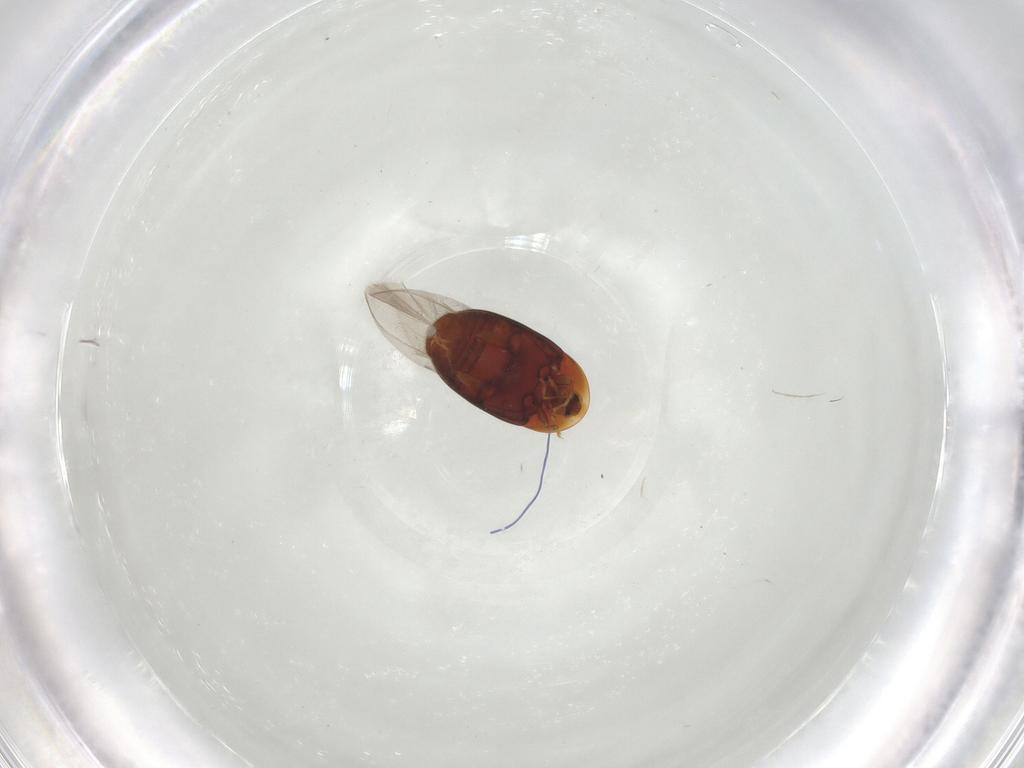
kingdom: Animalia
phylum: Arthropoda
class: Insecta
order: Coleoptera
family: Corylophidae
